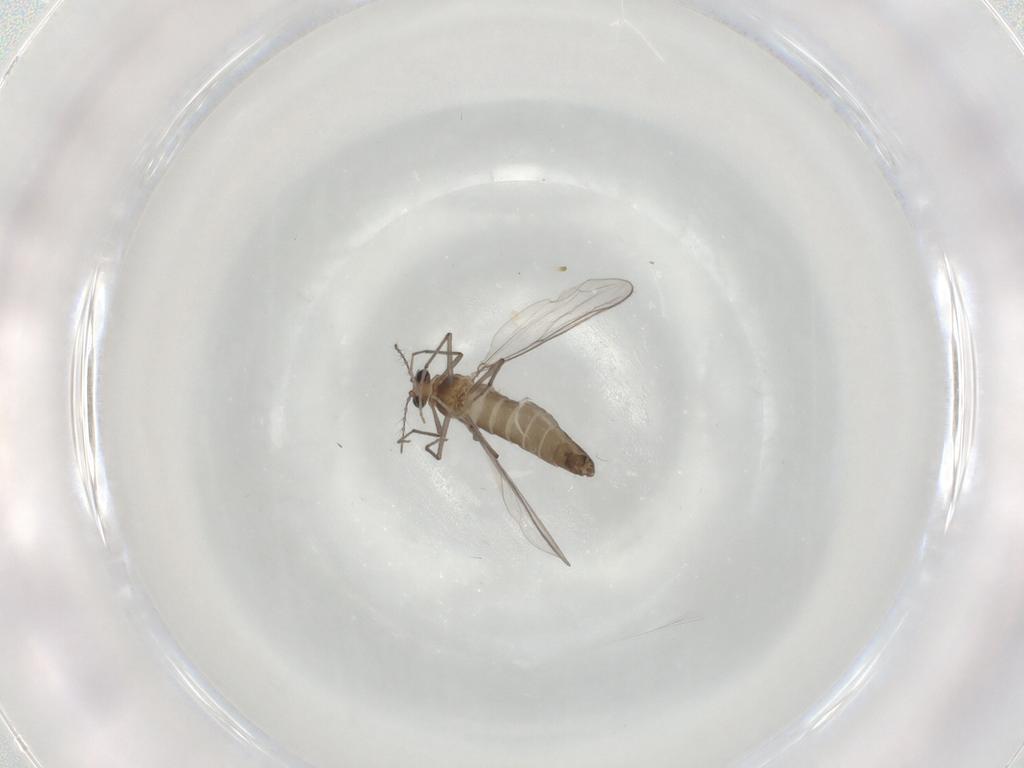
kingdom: Animalia
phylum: Arthropoda
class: Insecta
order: Diptera
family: Chironomidae
